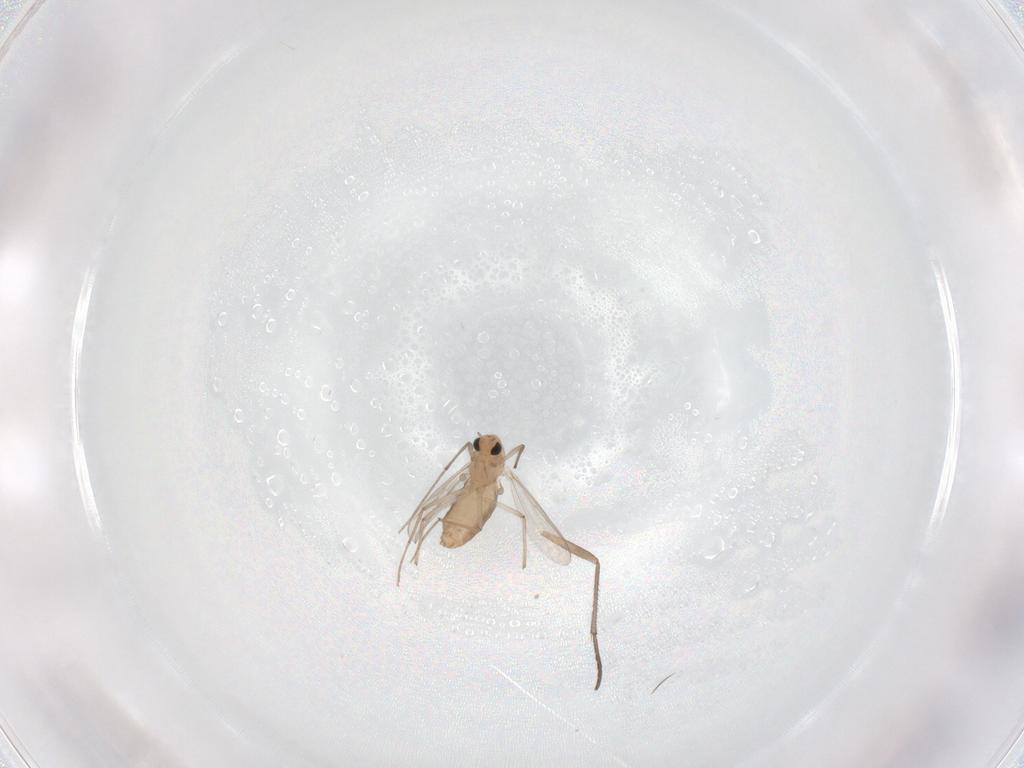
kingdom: Animalia
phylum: Arthropoda
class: Insecta
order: Diptera
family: Chironomidae
